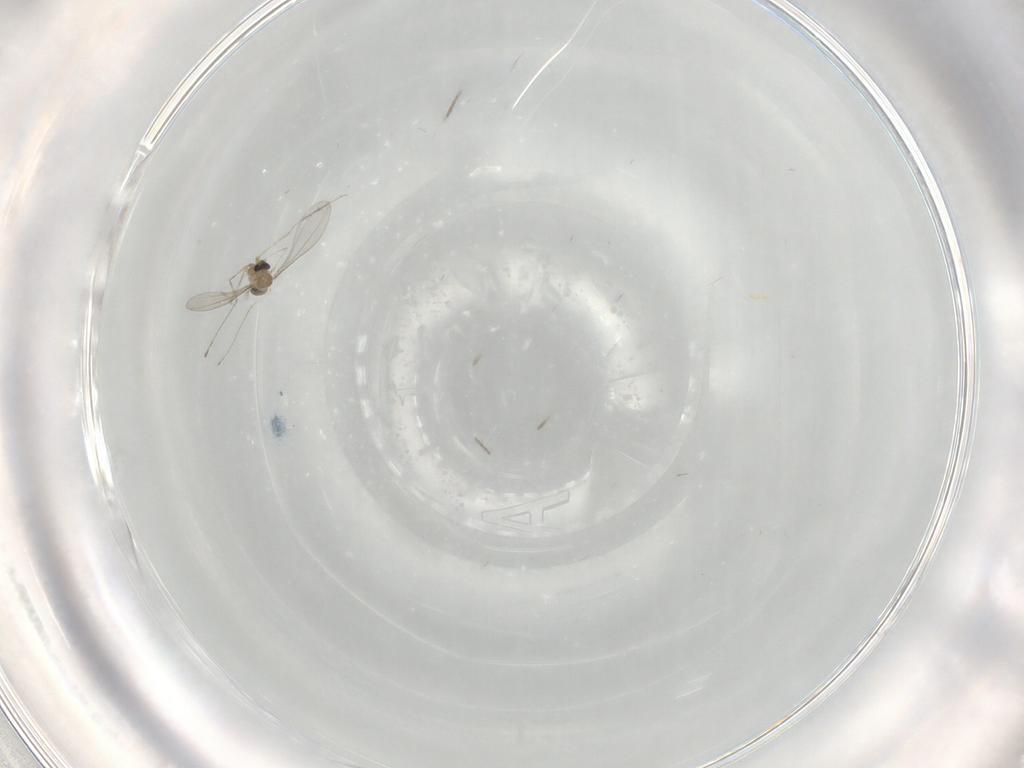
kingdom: Animalia
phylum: Arthropoda
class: Insecta
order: Diptera
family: Cecidomyiidae
